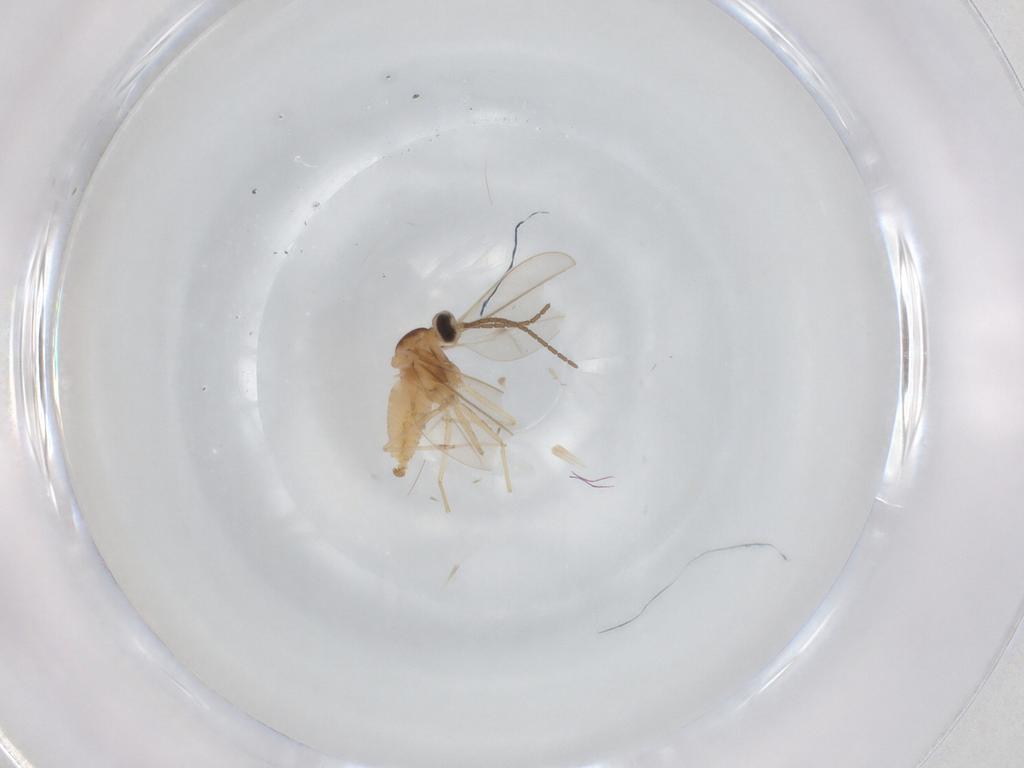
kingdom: Animalia
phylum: Arthropoda
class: Insecta
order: Diptera
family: Cecidomyiidae
